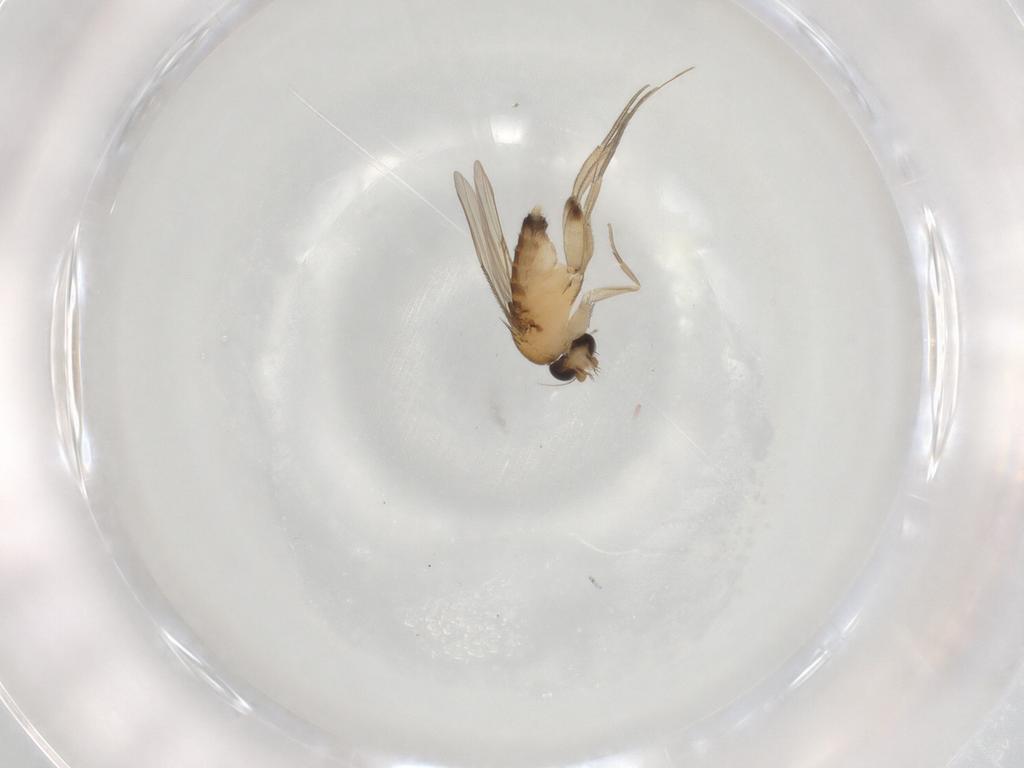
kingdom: Animalia
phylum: Arthropoda
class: Insecta
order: Diptera
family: Phoridae
